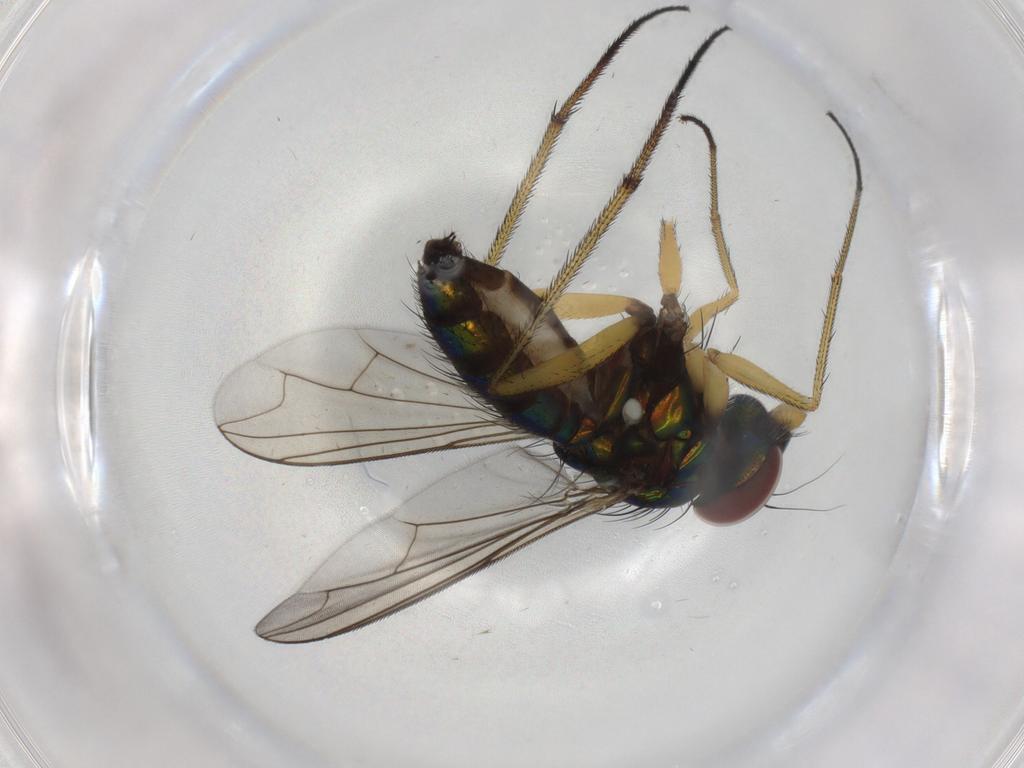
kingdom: Animalia
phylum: Arthropoda
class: Insecta
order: Diptera
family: Dolichopodidae
